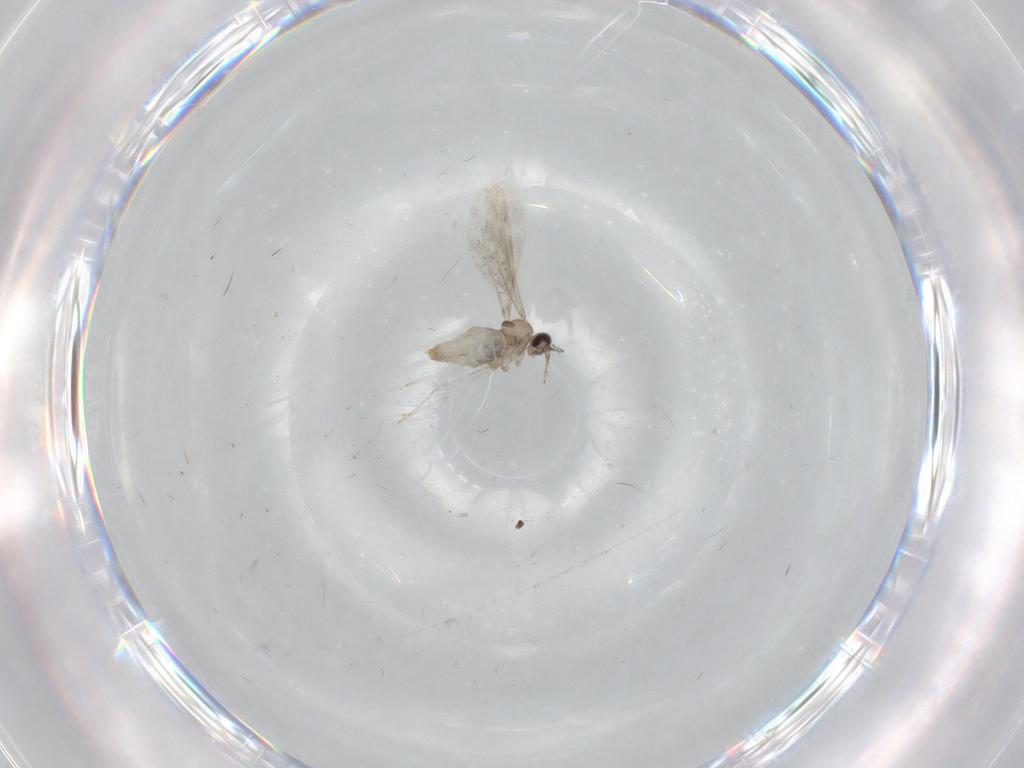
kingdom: Animalia
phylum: Arthropoda
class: Insecta
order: Diptera
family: Cecidomyiidae
